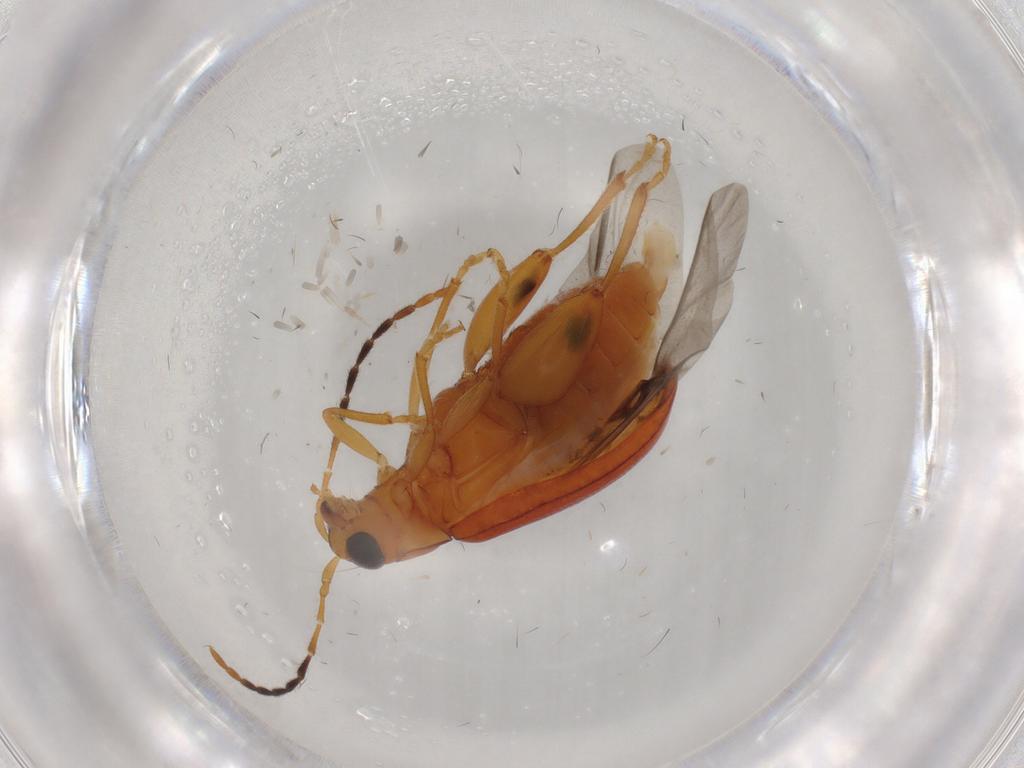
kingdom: Animalia
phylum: Arthropoda
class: Insecta
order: Coleoptera
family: Chrysomelidae
